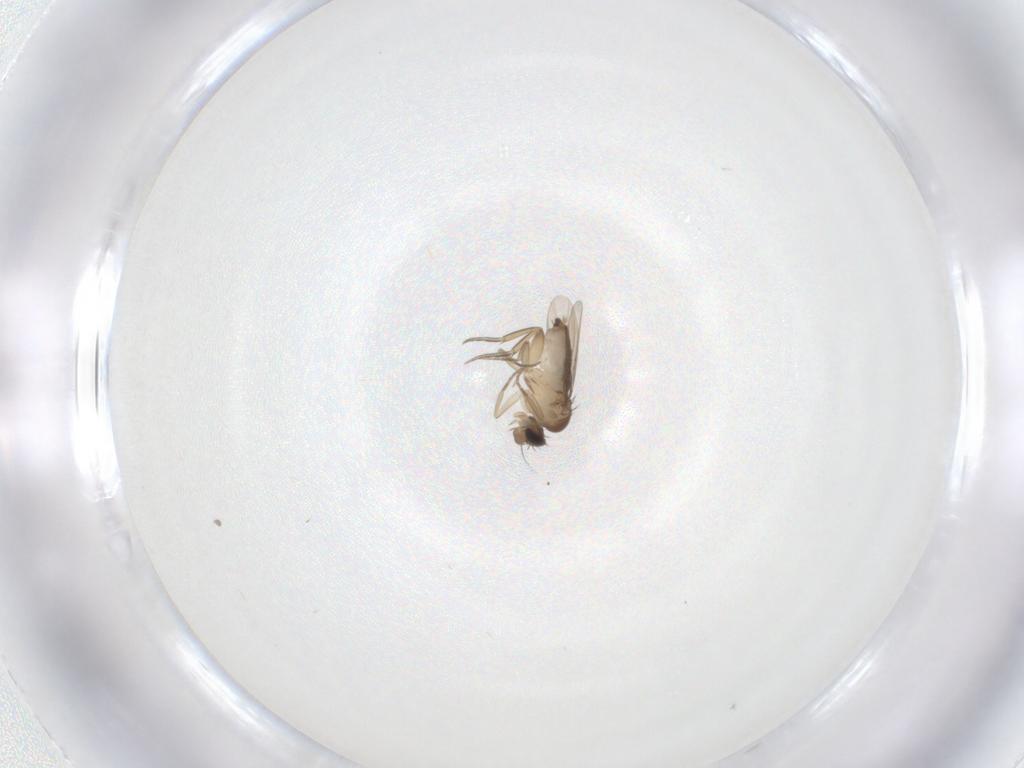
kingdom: Animalia
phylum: Arthropoda
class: Insecta
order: Diptera
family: Phoridae
